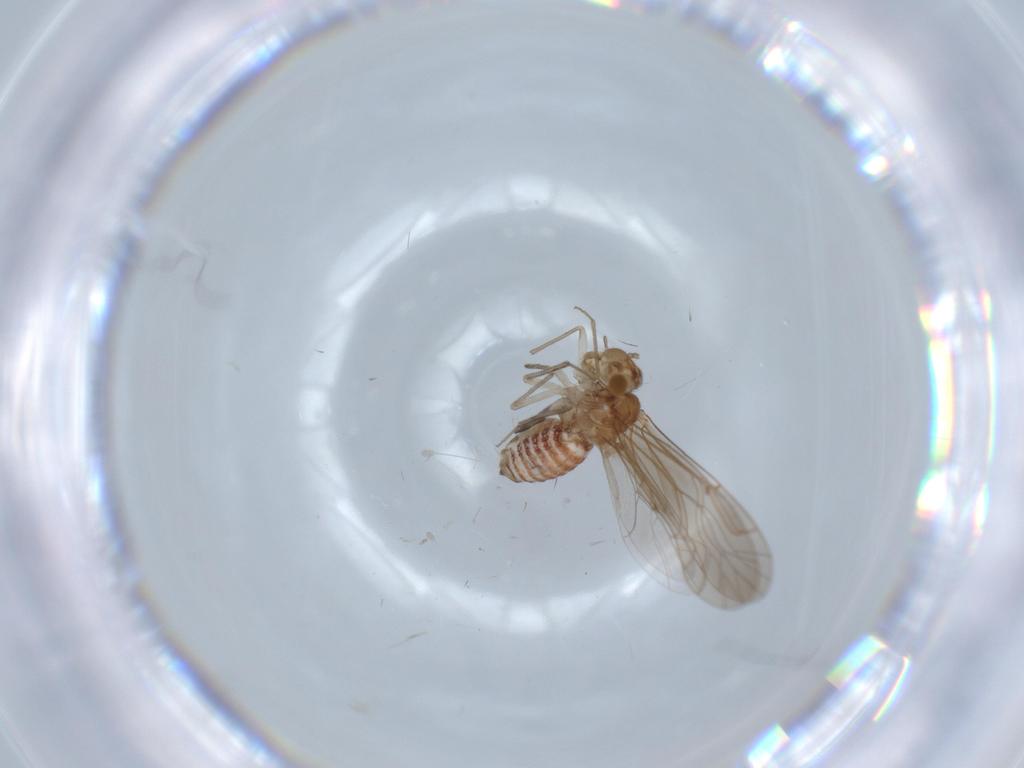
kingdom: Animalia
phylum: Arthropoda
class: Insecta
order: Psocodea
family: Lachesillidae
